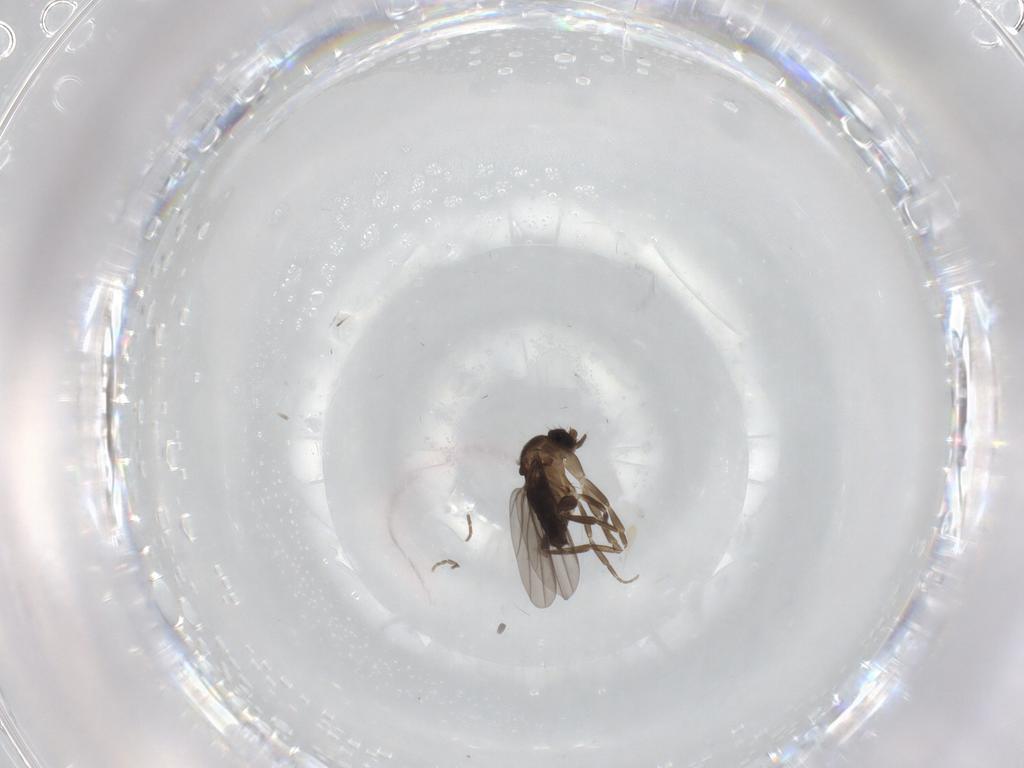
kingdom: Animalia
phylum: Arthropoda
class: Insecta
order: Diptera
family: Phoridae
